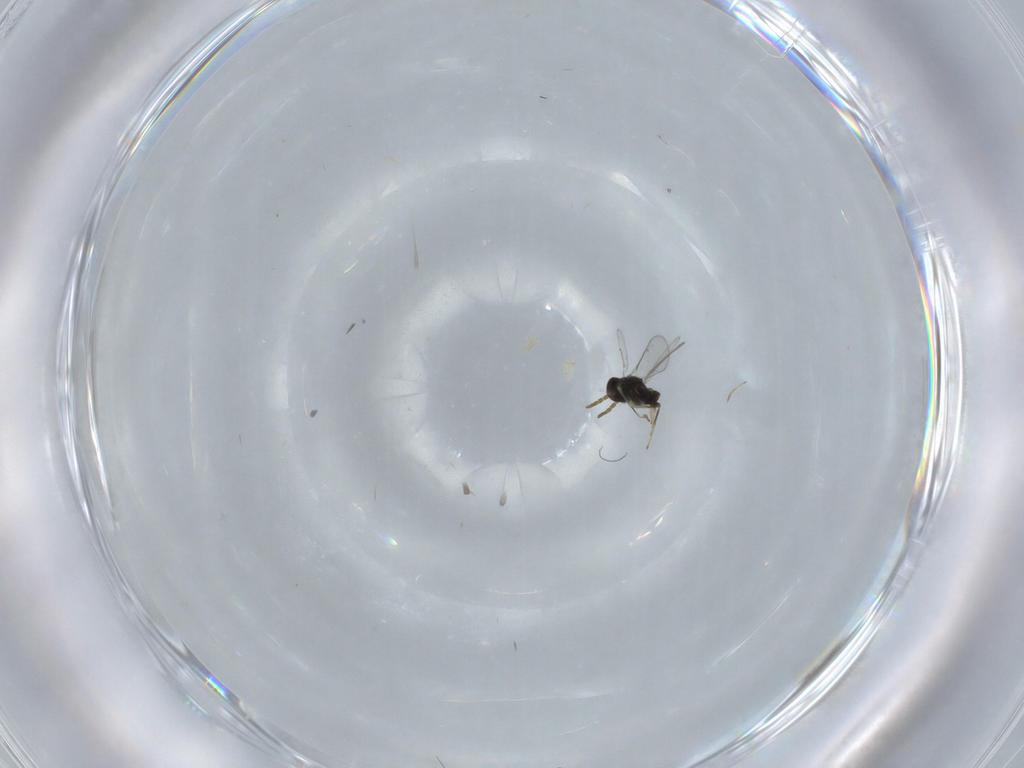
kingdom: Animalia
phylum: Arthropoda
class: Insecta
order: Hymenoptera
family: Aphelinidae
